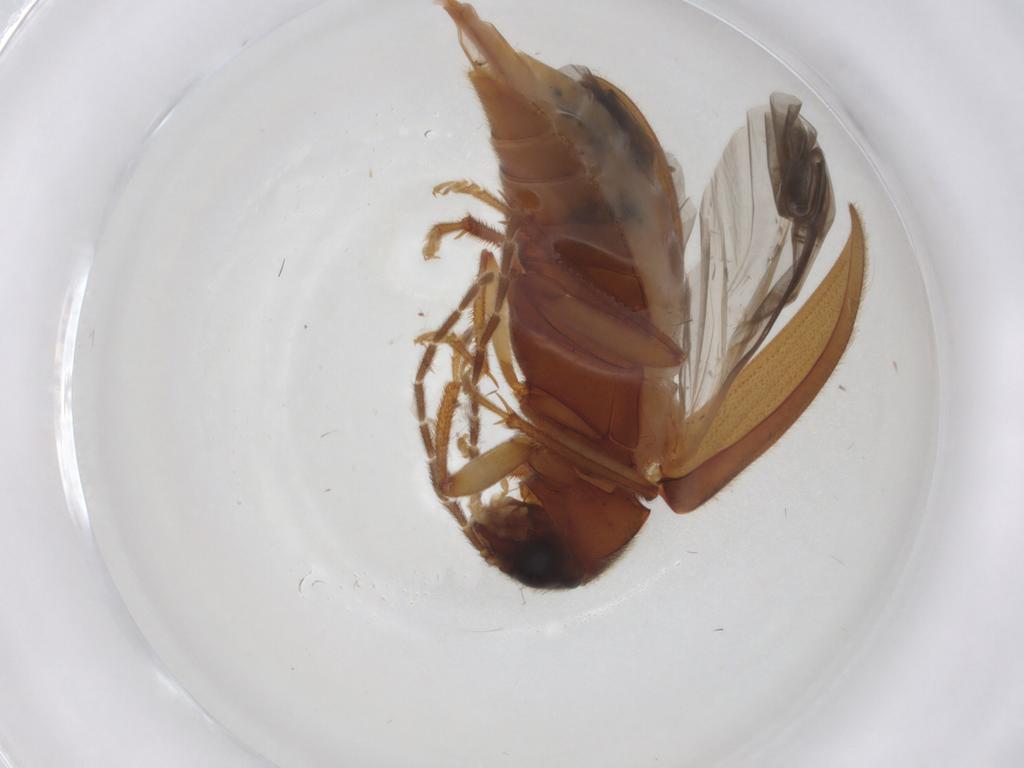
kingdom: Animalia
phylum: Arthropoda
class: Insecta
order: Coleoptera
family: Ptilodactylidae
